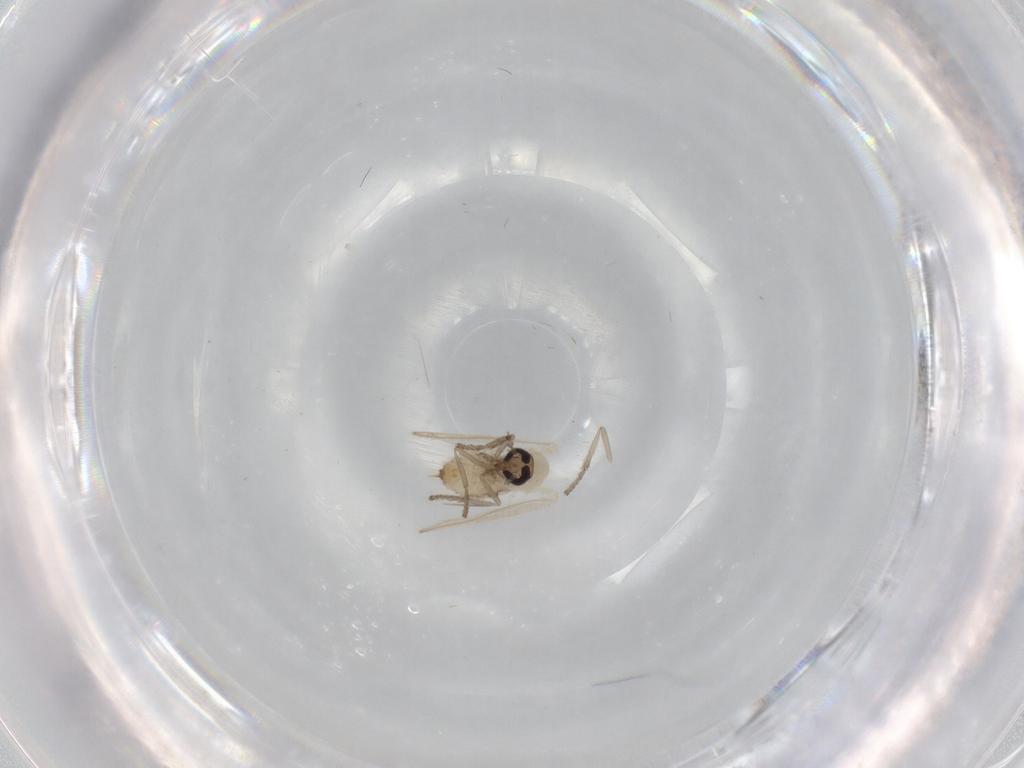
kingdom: Animalia
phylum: Arthropoda
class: Insecta
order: Diptera
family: Psychodidae
